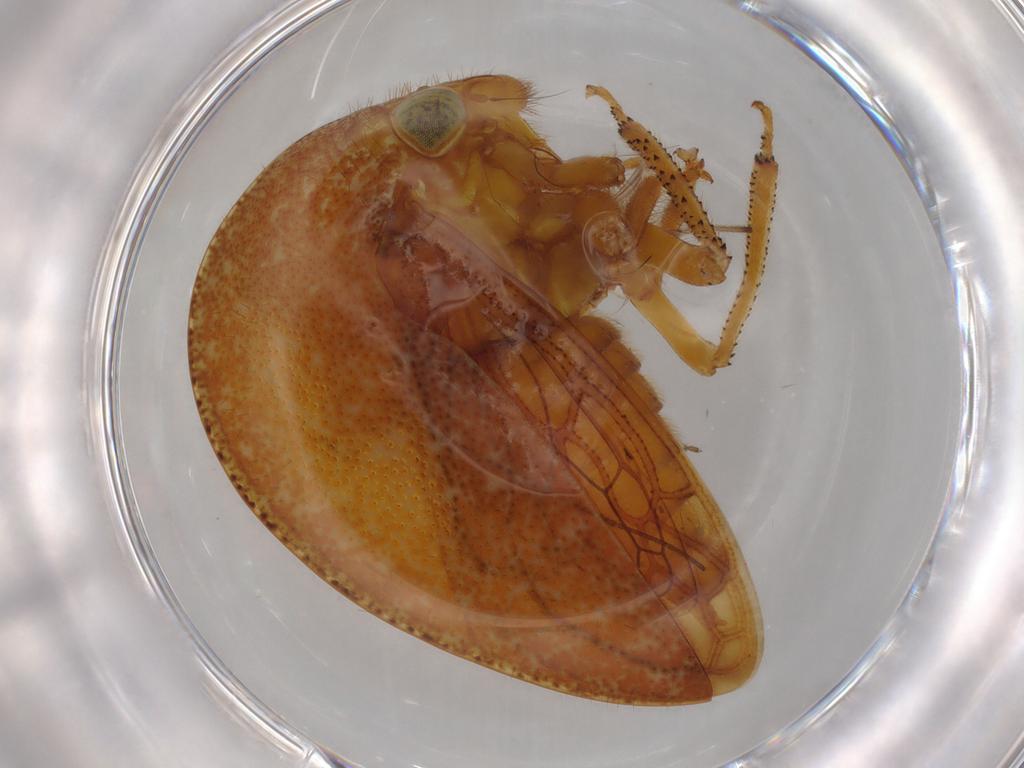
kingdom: Animalia
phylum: Arthropoda
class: Insecta
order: Hemiptera
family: Membracidae
